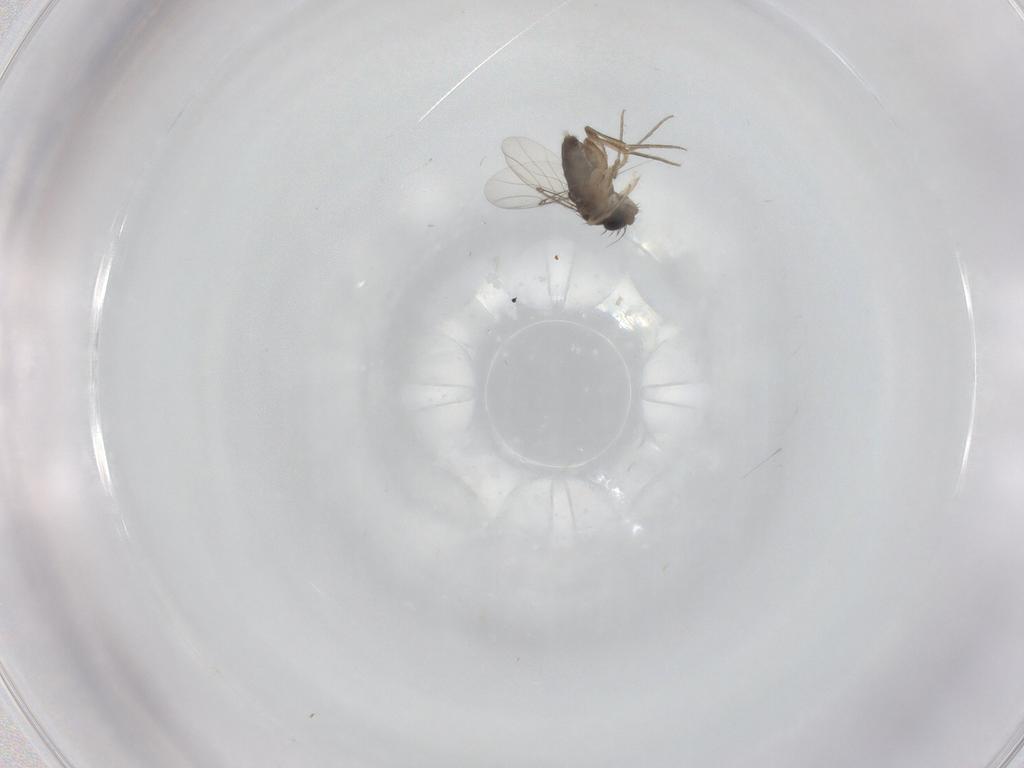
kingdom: Animalia
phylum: Arthropoda
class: Insecta
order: Diptera
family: Cecidomyiidae
